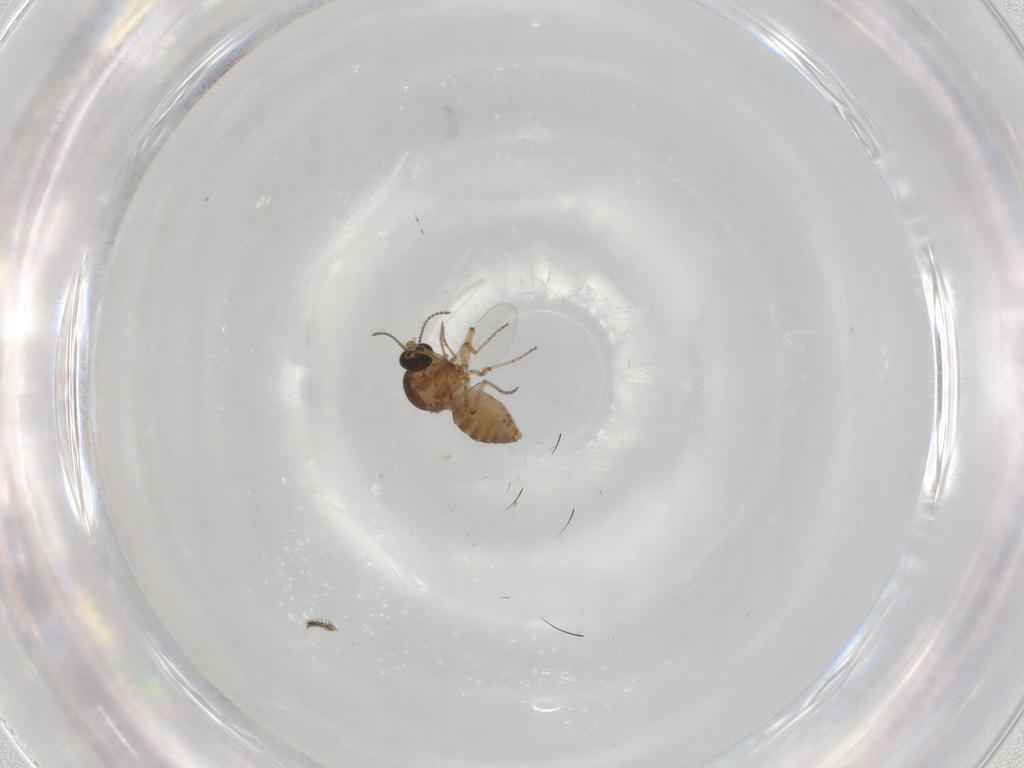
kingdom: Animalia
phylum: Arthropoda
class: Insecta
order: Diptera
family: Ceratopogonidae
